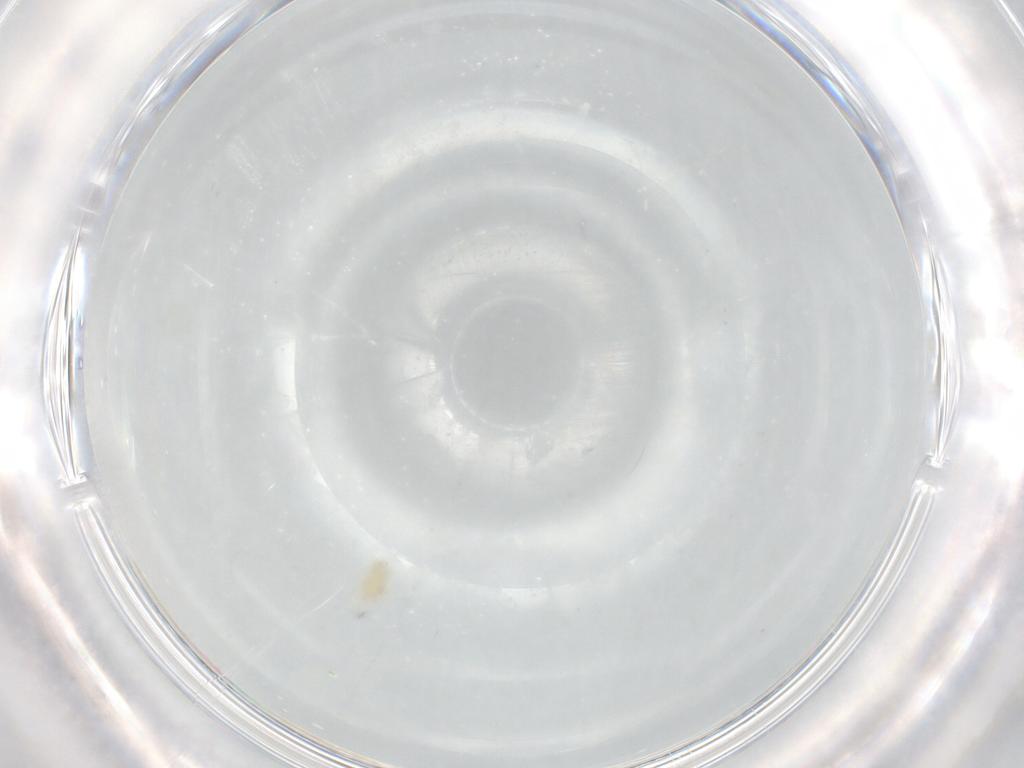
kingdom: Animalia
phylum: Arthropoda
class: Arachnida
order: Trombidiformes
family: Eupodidae
